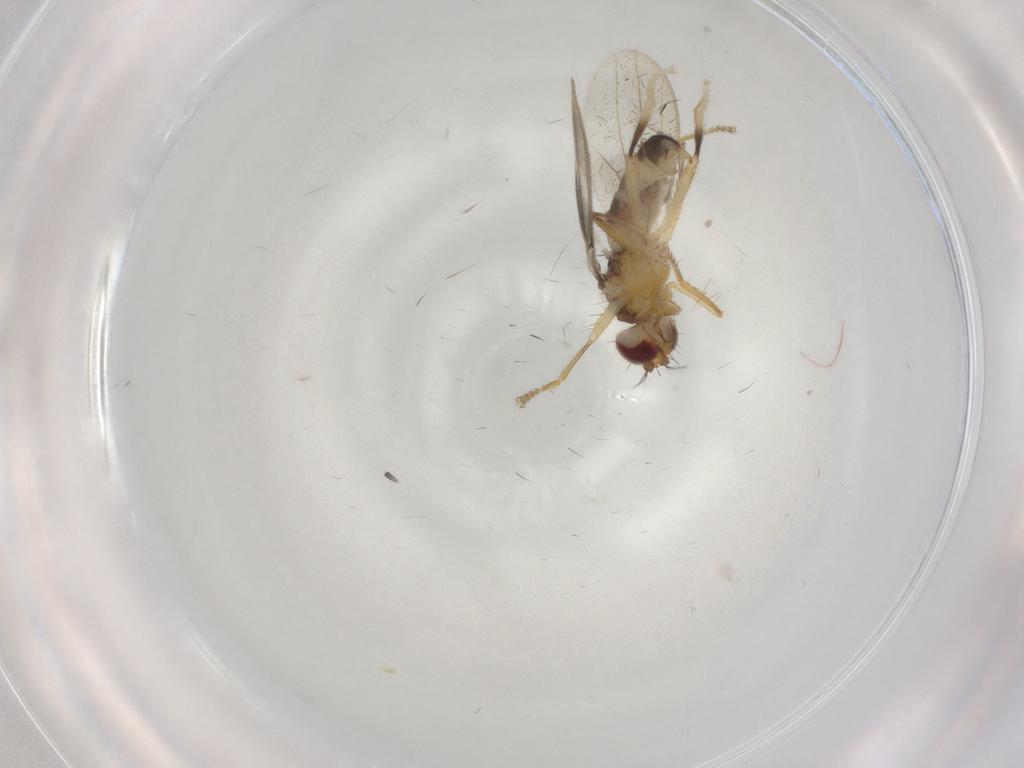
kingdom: Animalia
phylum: Arthropoda
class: Insecta
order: Diptera
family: Periscelididae
